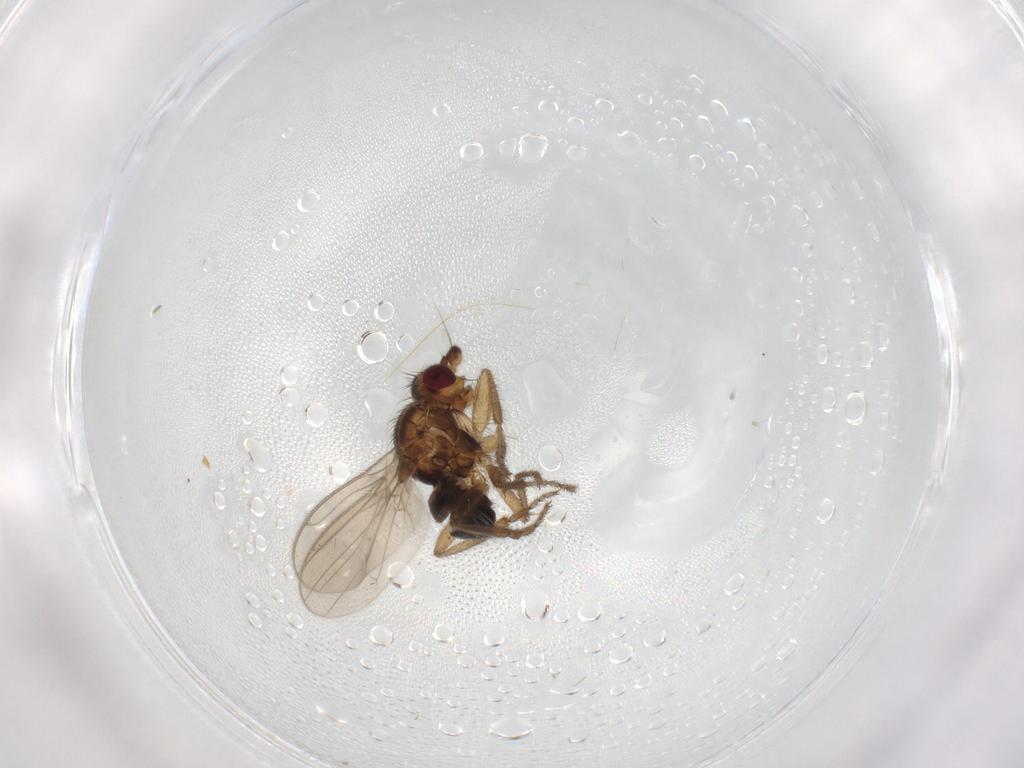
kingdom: Animalia
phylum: Arthropoda
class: Insecta
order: Diptera
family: Sphaeroceridae
